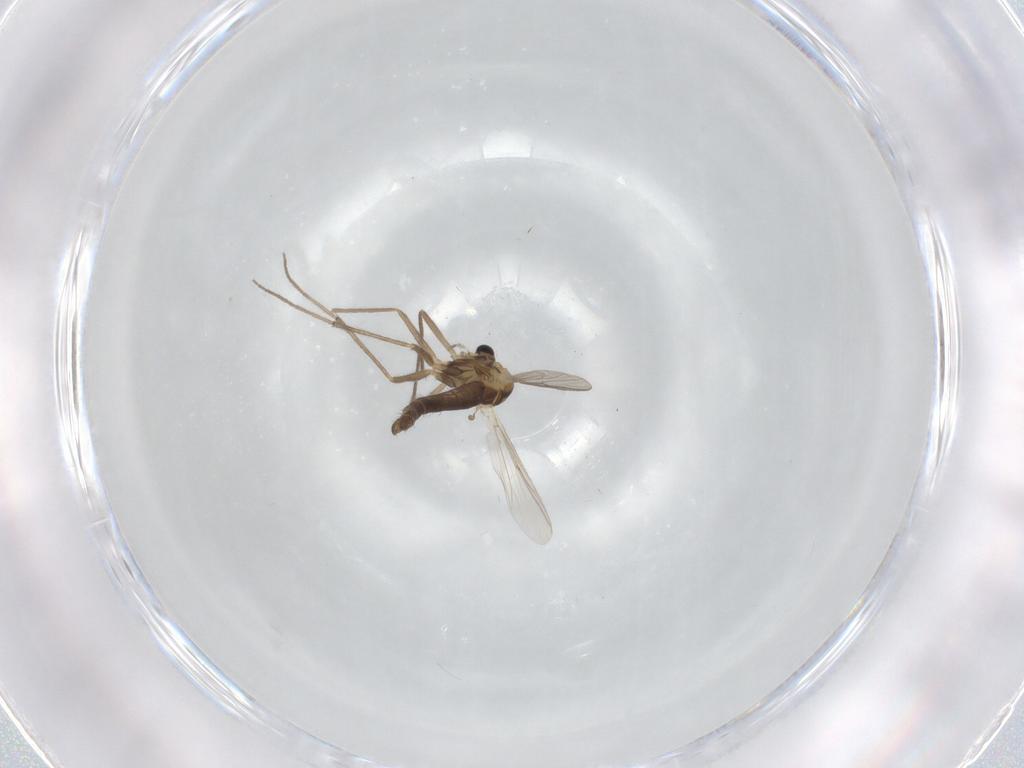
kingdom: Animalia
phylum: Arthropoda
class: Insecta
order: Diptera
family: Chironomidae
